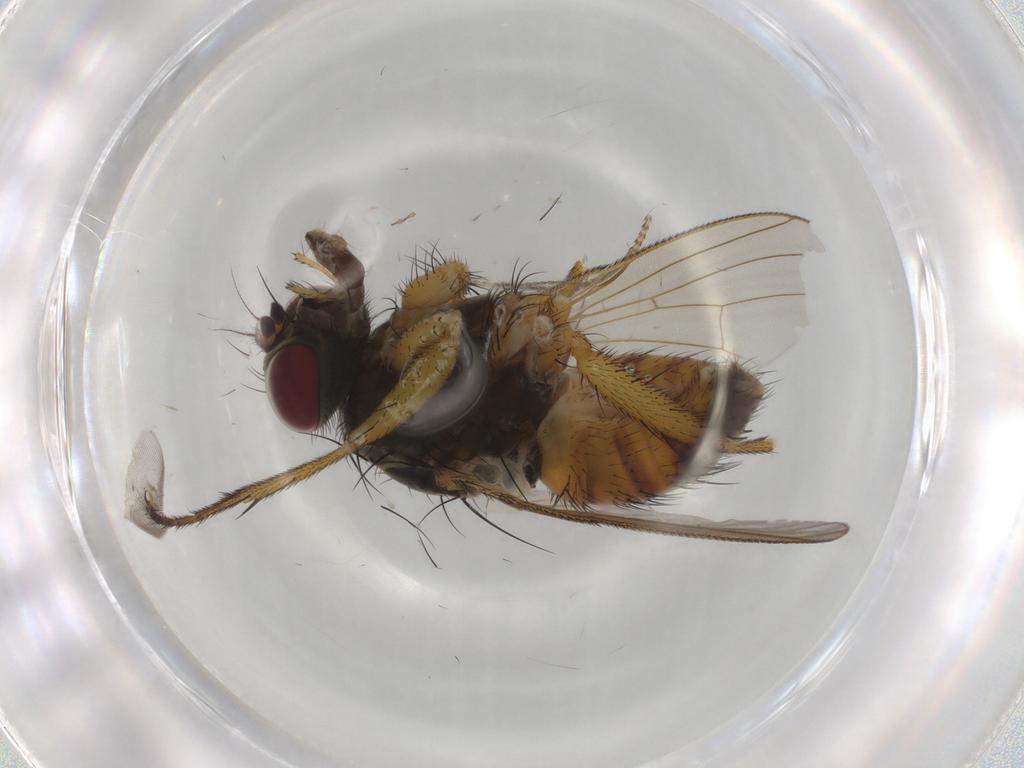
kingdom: Animalia
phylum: Arthropoda
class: Insecta
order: Diptera
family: Muscidae
